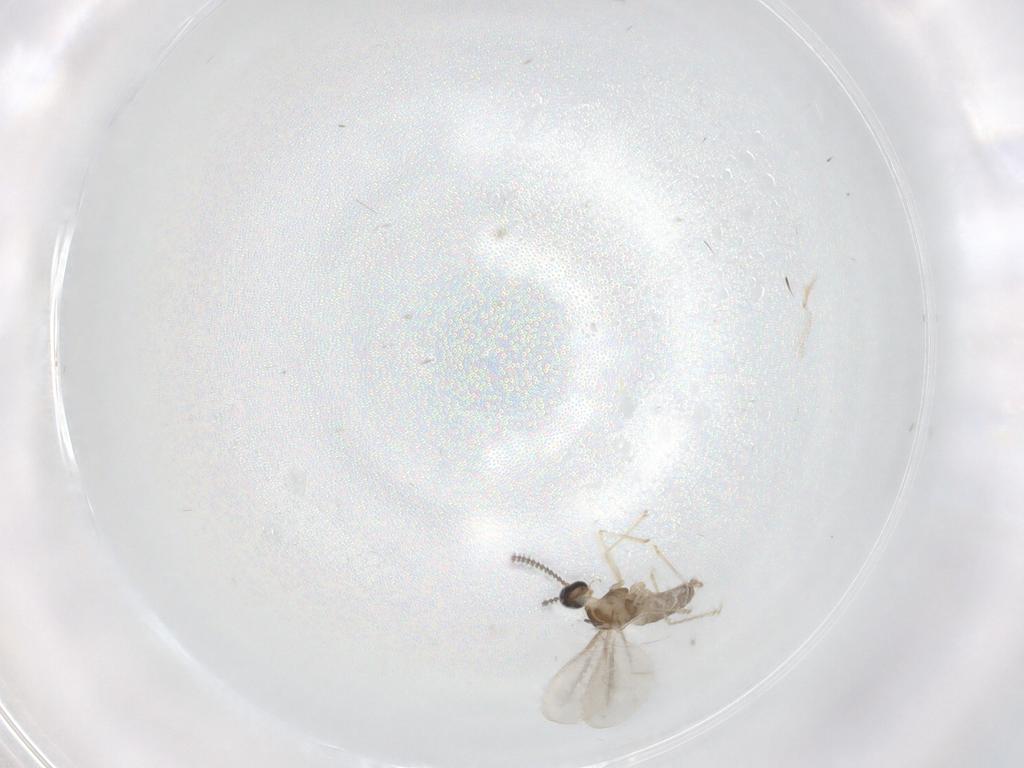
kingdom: Animalia
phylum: Arthropoda
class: Insecta
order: Diptera
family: Cecidomyiidae
